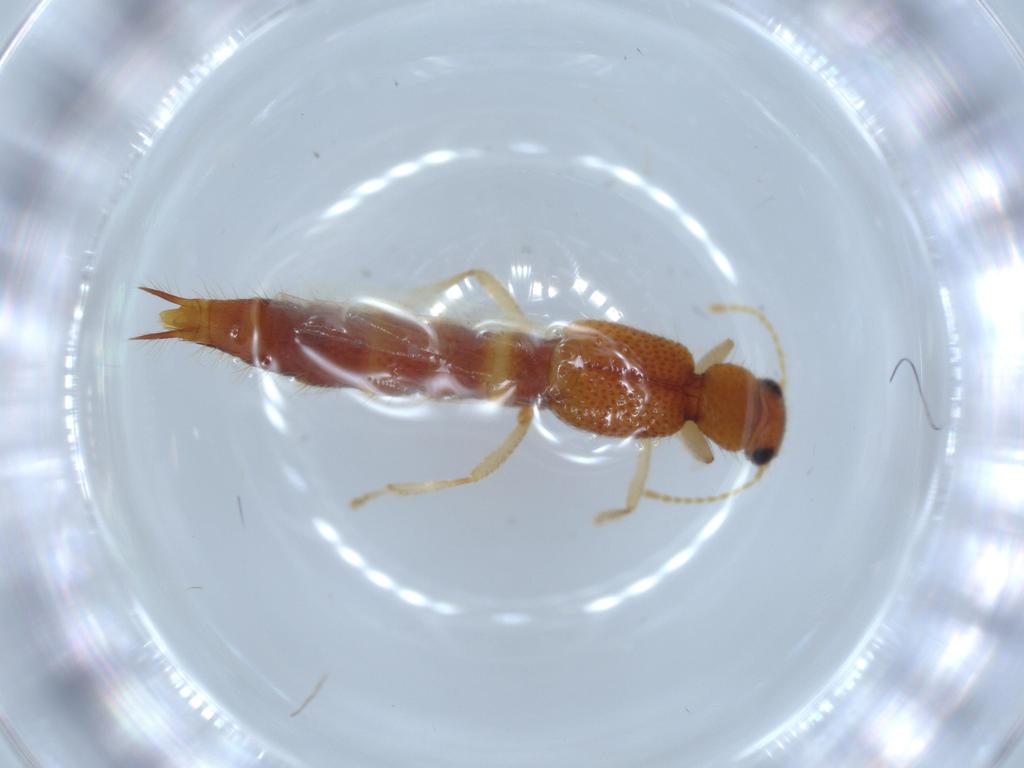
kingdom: Animalia
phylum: Arthropoda
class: Insecta
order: Coleoptera
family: Staphylinidae
